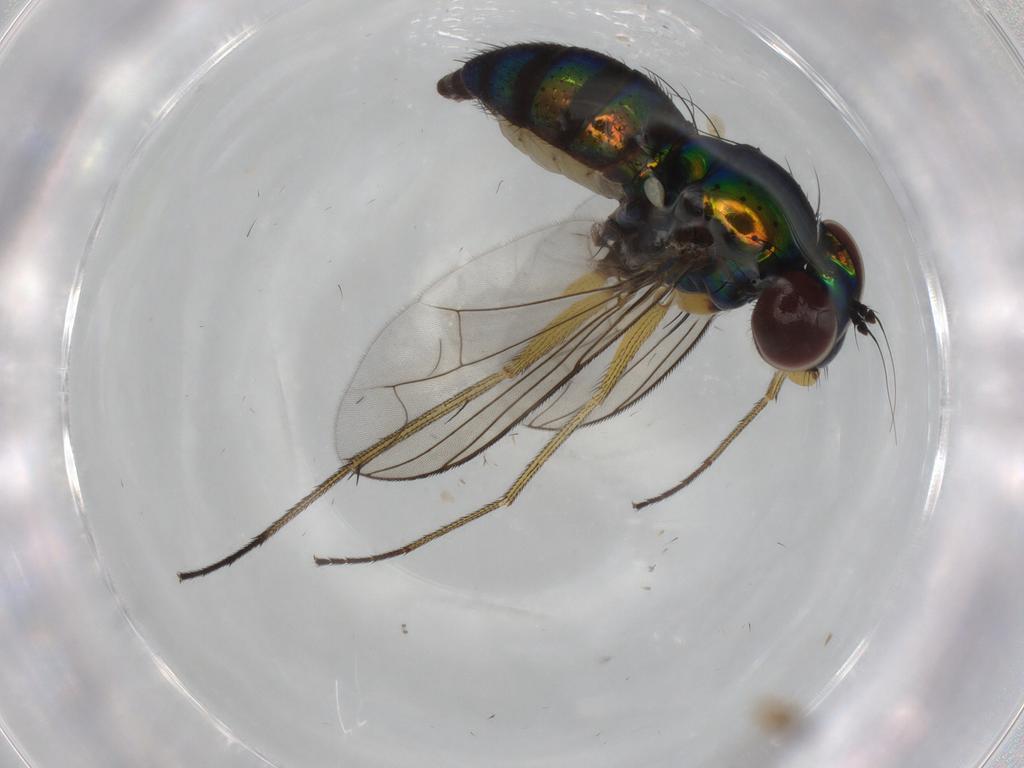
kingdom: Animalia
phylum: Arthropoda
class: Insecta
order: Diptera
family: Dolichopodidae
